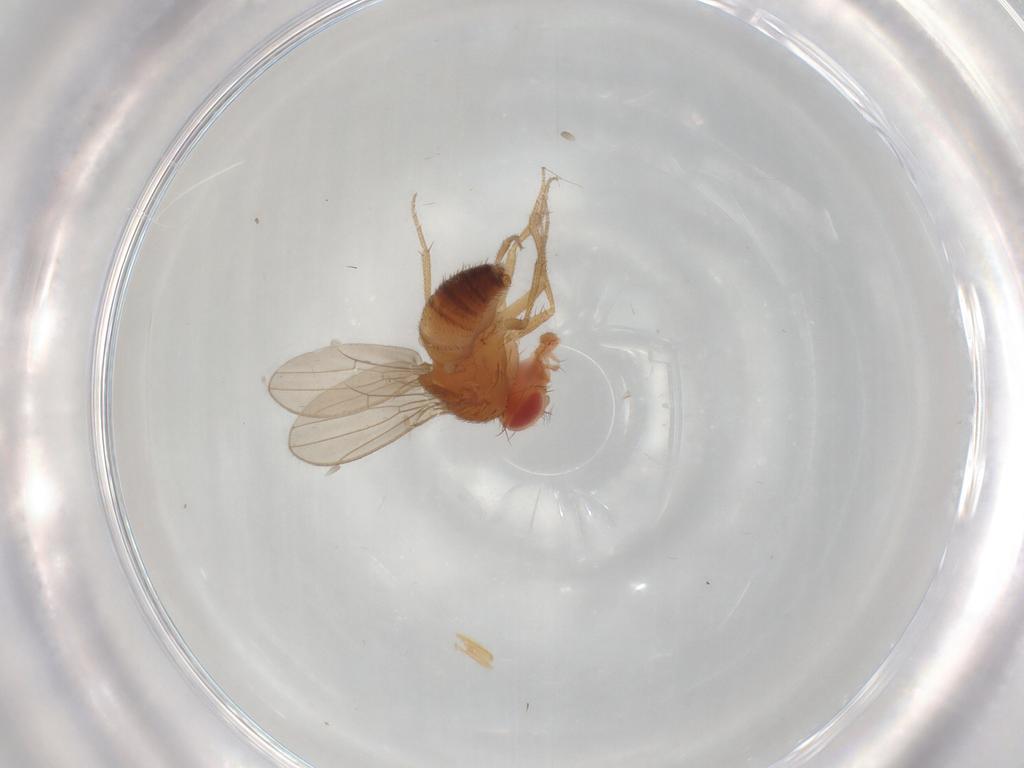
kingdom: Animalia
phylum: Arthropoda
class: Insecta
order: Diptera
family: Drosophilidae
